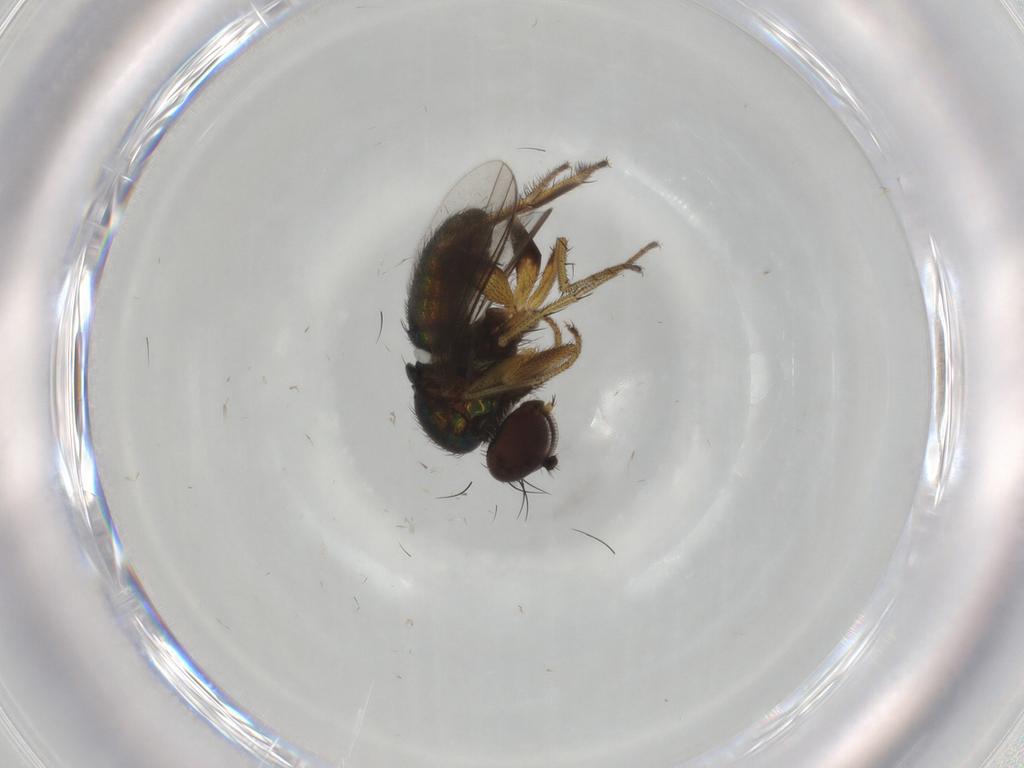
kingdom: Animalia
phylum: Arthropoda
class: Insecta
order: Diptera
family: Dolichopodidae
